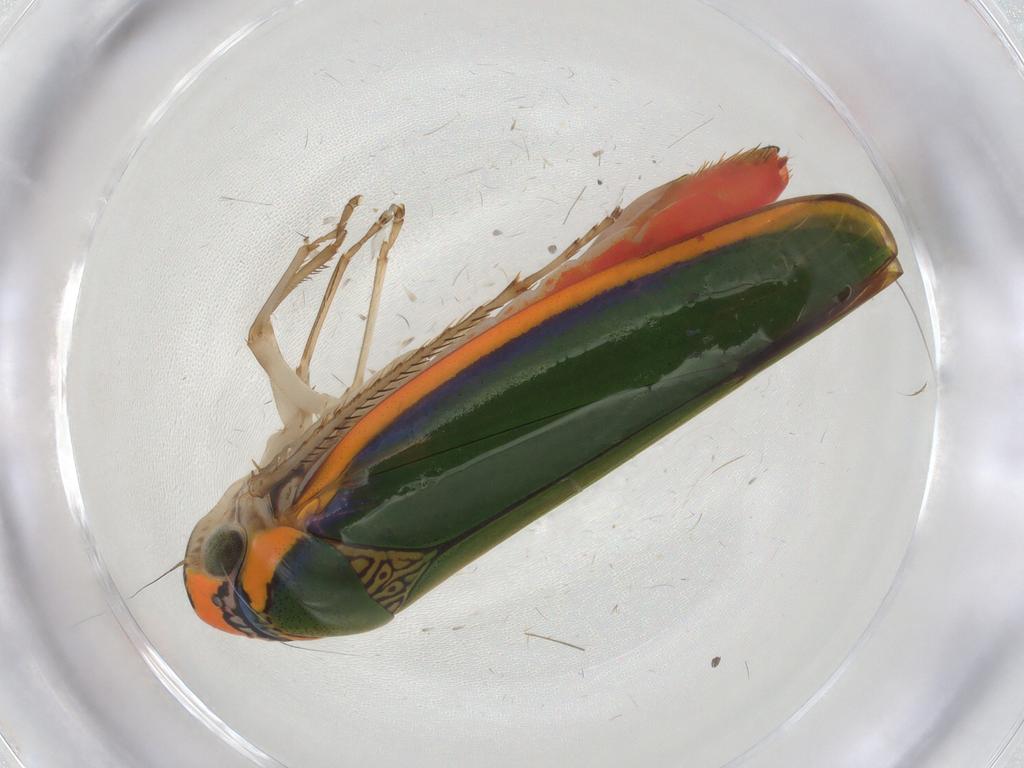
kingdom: Animalia
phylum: Arthropoda
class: Insecta
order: Hemiptera
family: Cicadellidae
